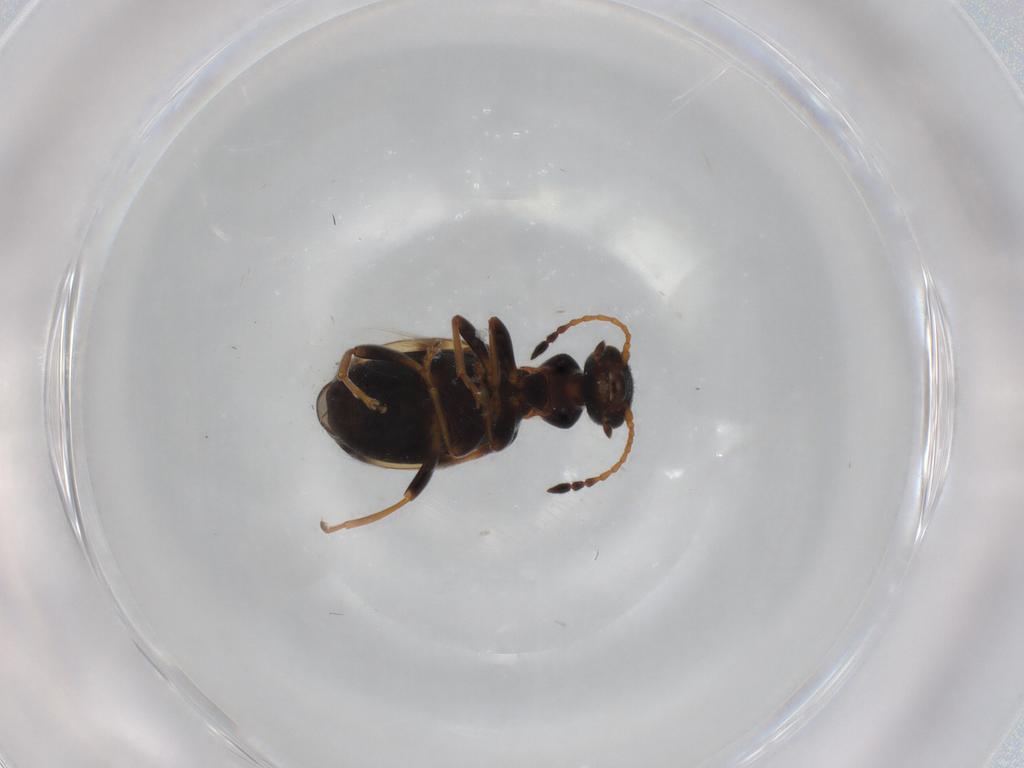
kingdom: Animalia
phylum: Arthropoda
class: Insecta
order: Coleoptera
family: Anthicidae
